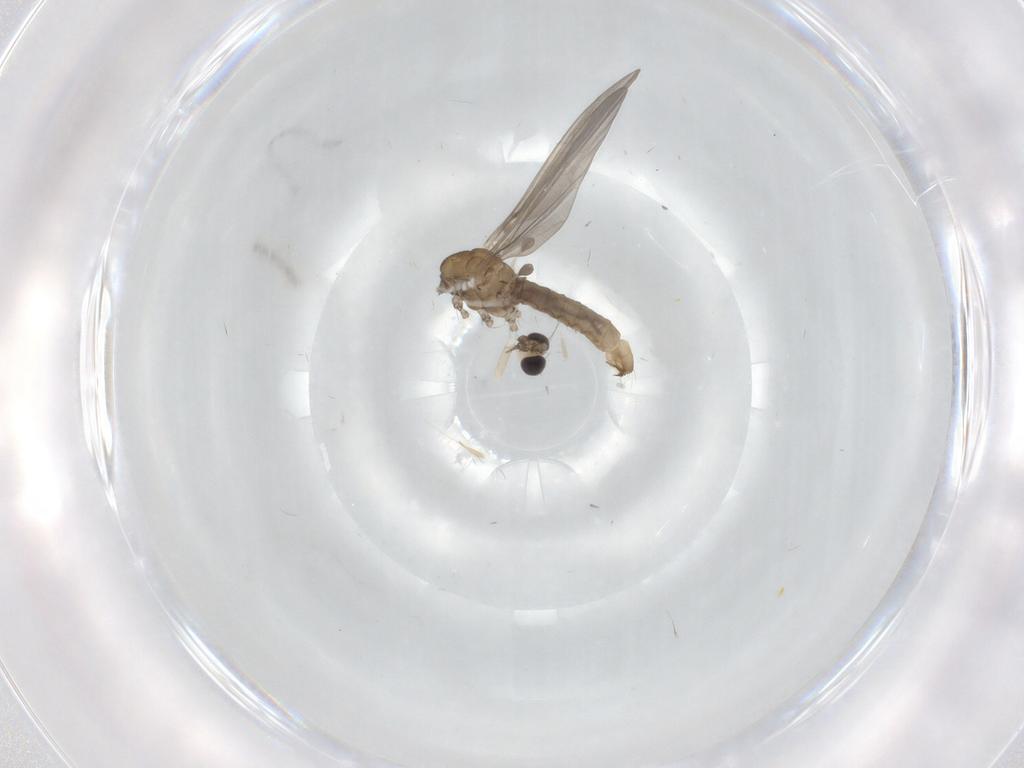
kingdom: Animalia
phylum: Arthropoda
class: Insecta
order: Diptera
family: Limoniidae
